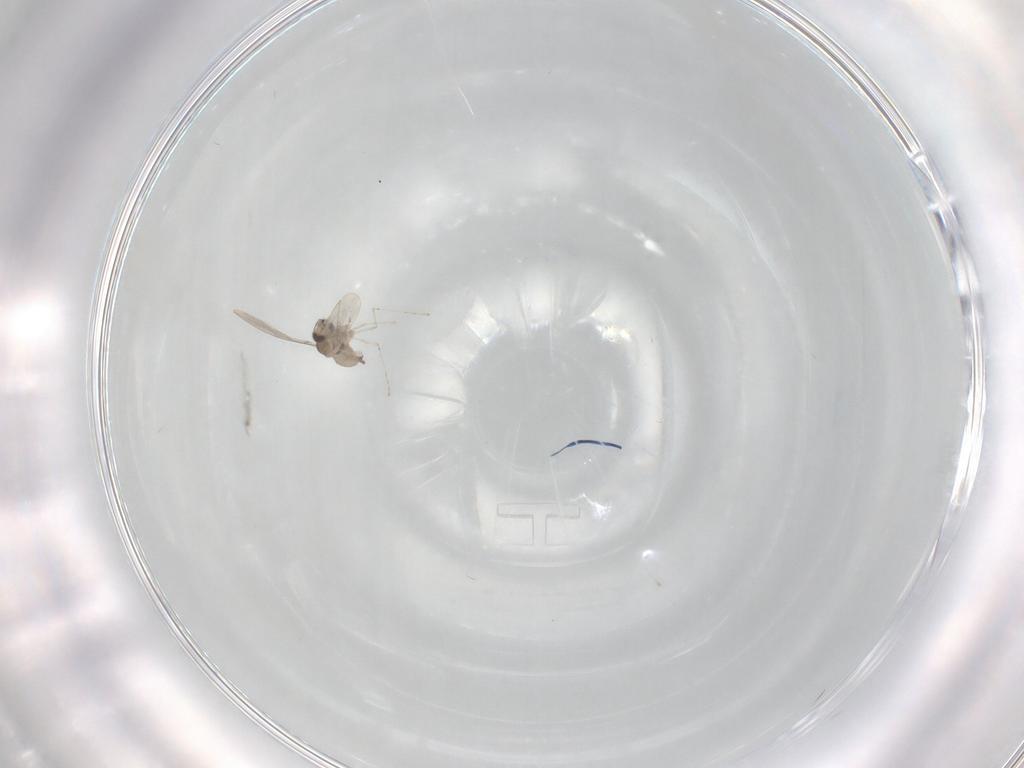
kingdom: Animalia
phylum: Arthropoda
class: Insecta
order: Diptera
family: Cecidomyiidae
